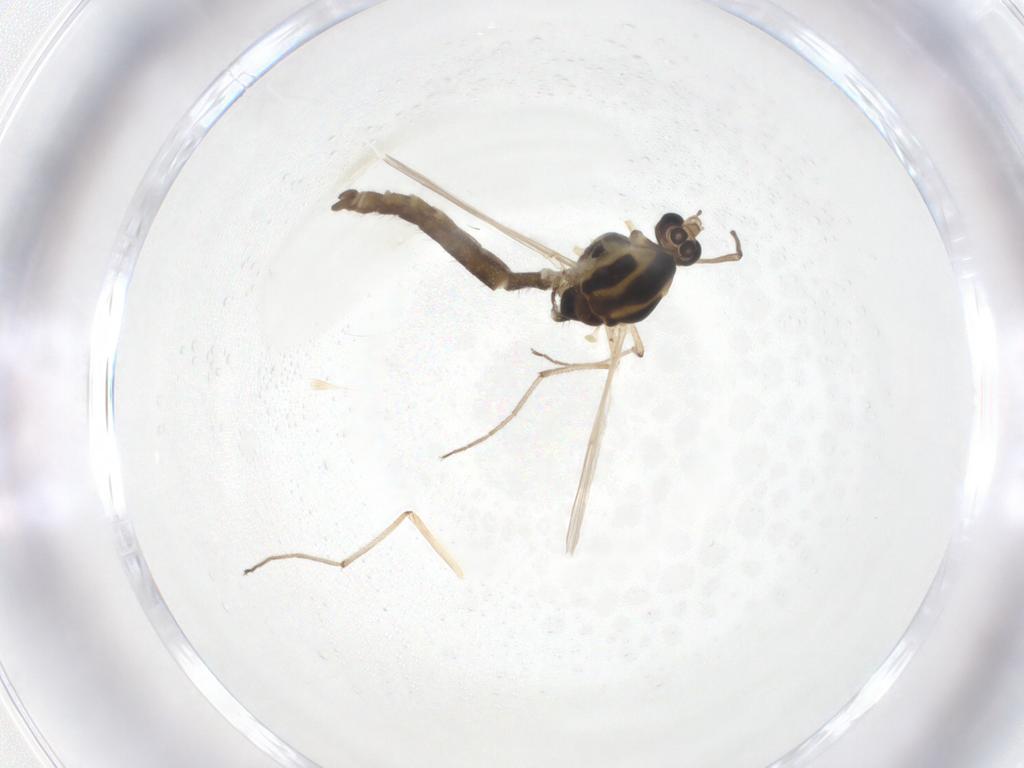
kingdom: Animalia
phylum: Arthropoda
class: Insecta
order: Diptera
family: Chironomidae
